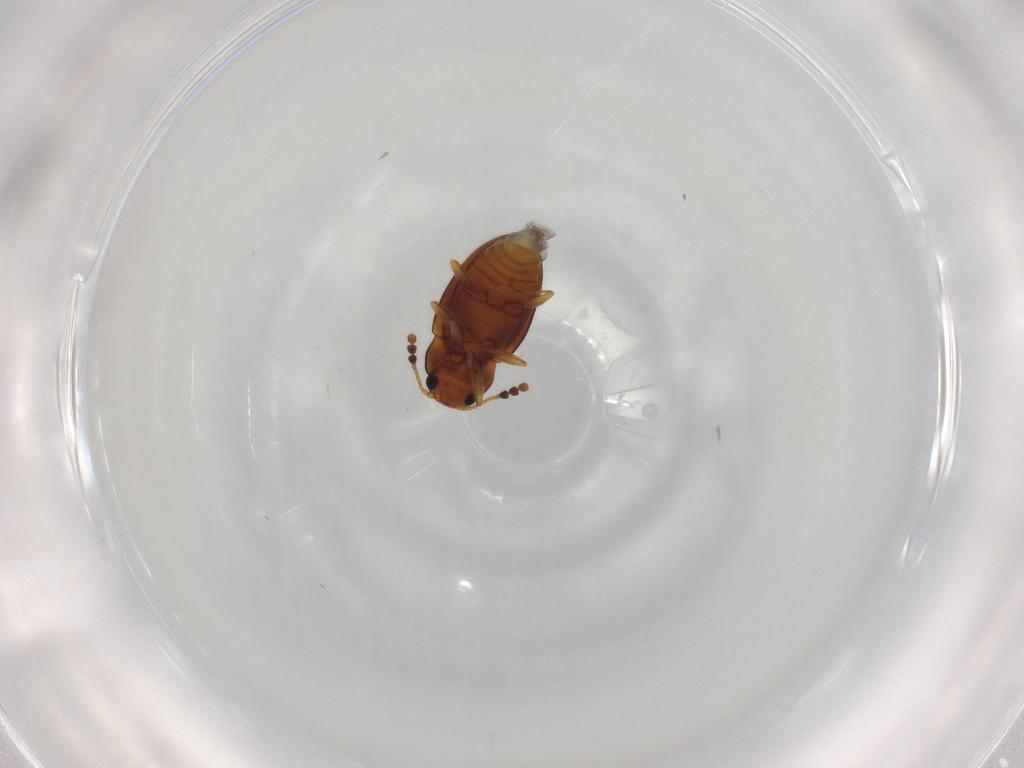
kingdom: Animalia
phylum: Arthropoda
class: Insecta
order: Coleoptera
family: Erotylidae
